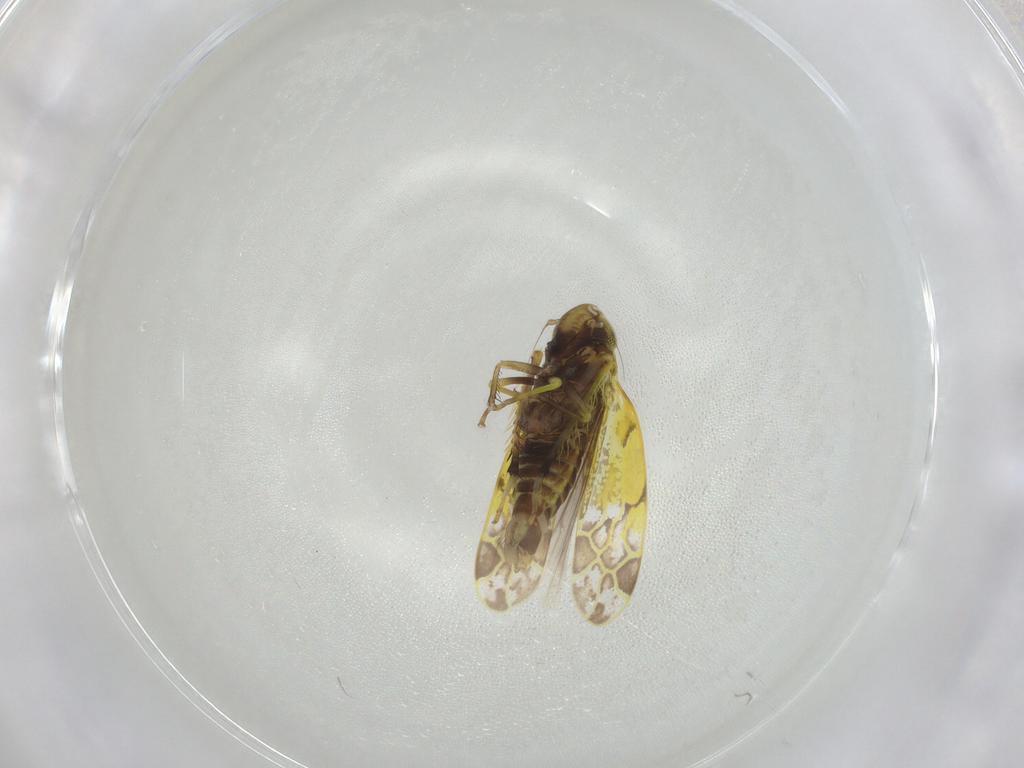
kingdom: Animalia
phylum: Arthropoda
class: Insecta
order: Hemiptera
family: Cicadellidae
